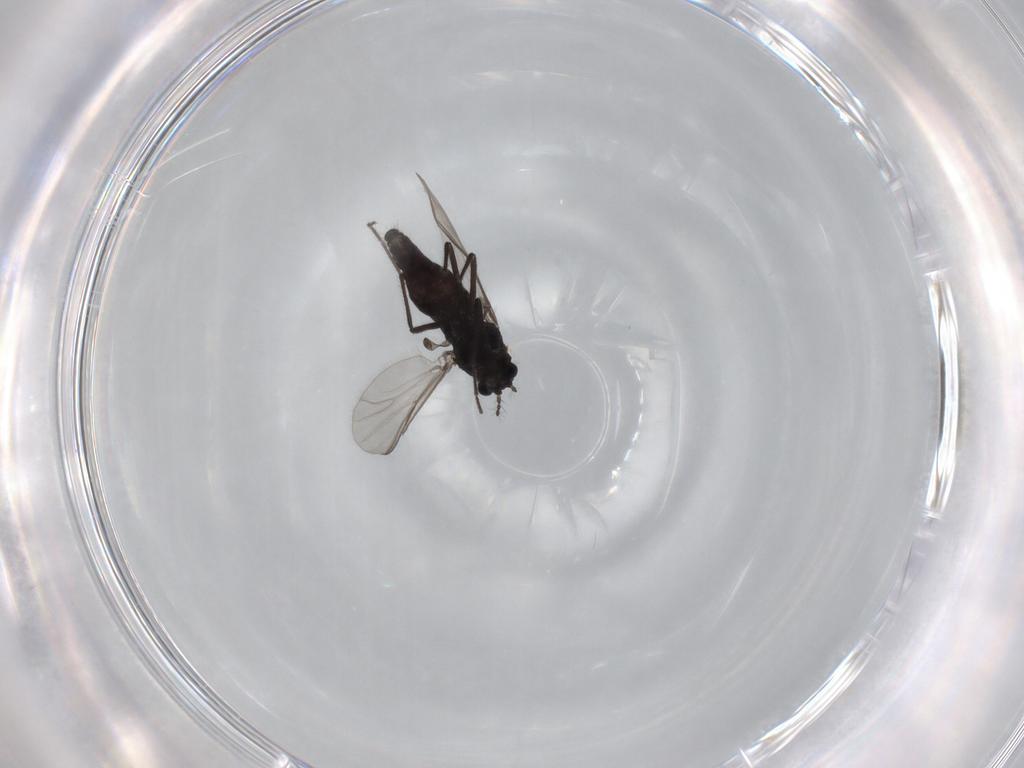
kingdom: Animalia
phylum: Arthropoda
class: Insecta
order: Diptera
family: Chironomidae
